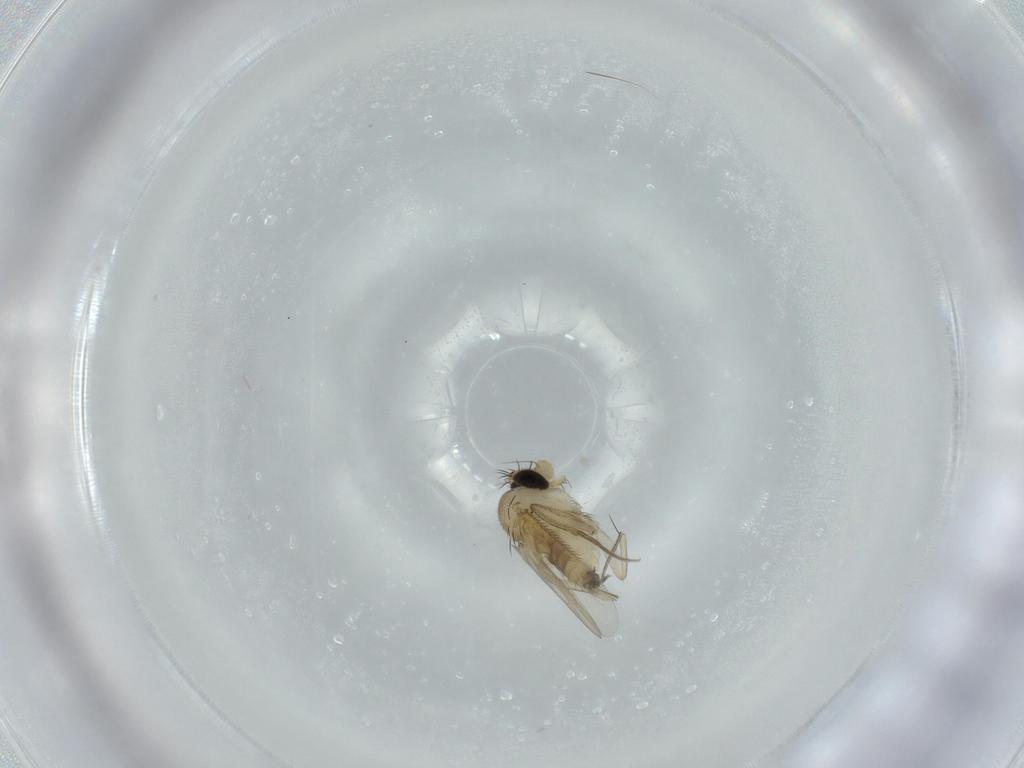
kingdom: Animalia
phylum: Arthropoda
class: Insecta
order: Diptera
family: Phoridae
